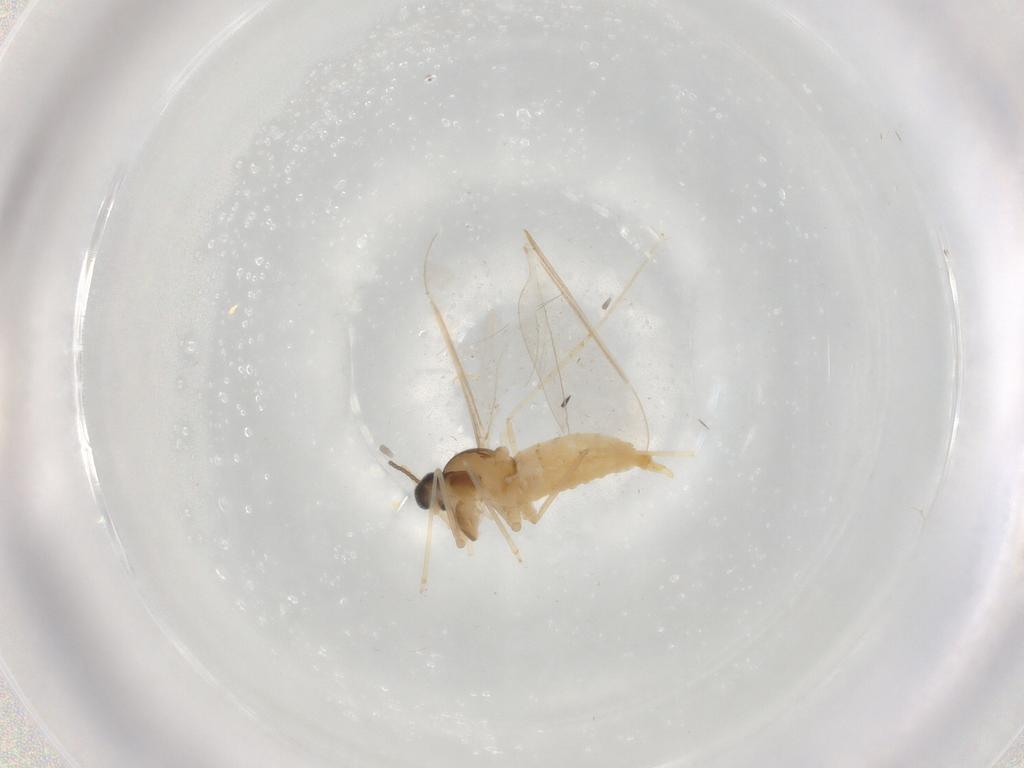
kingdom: Animalia
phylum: Arthropoda
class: Insecta
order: Diptera
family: Cecidomyiidae
